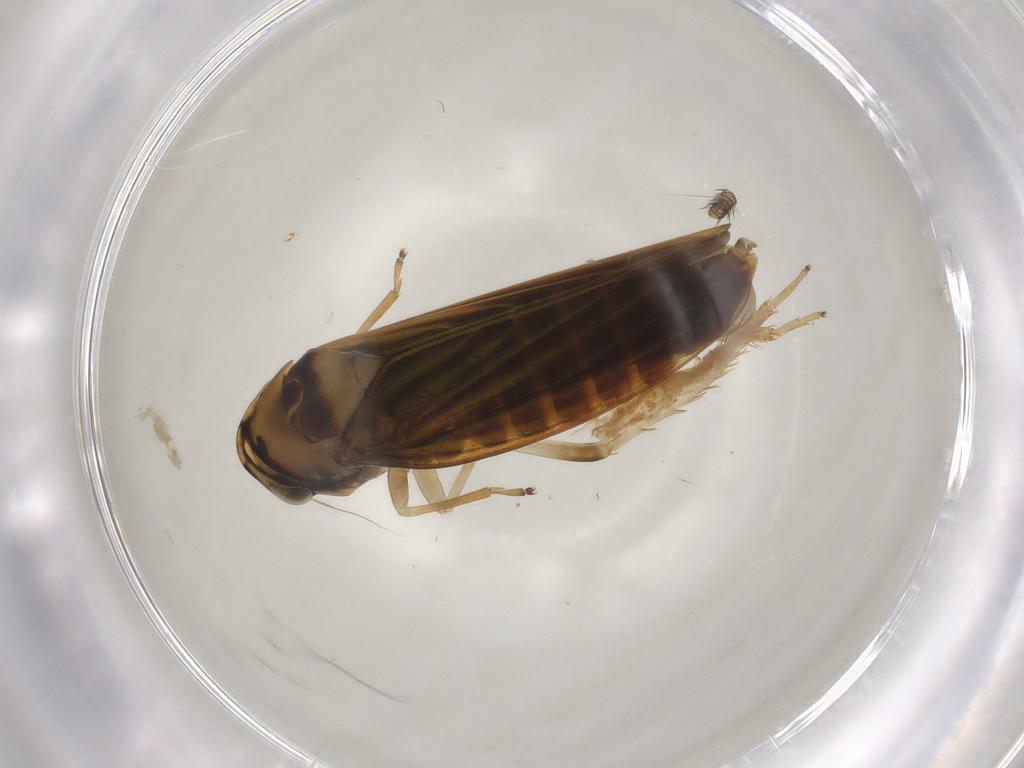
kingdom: Animalia
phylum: Arthropoda
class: Insecta
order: Hemiptera
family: Cicadellidae
